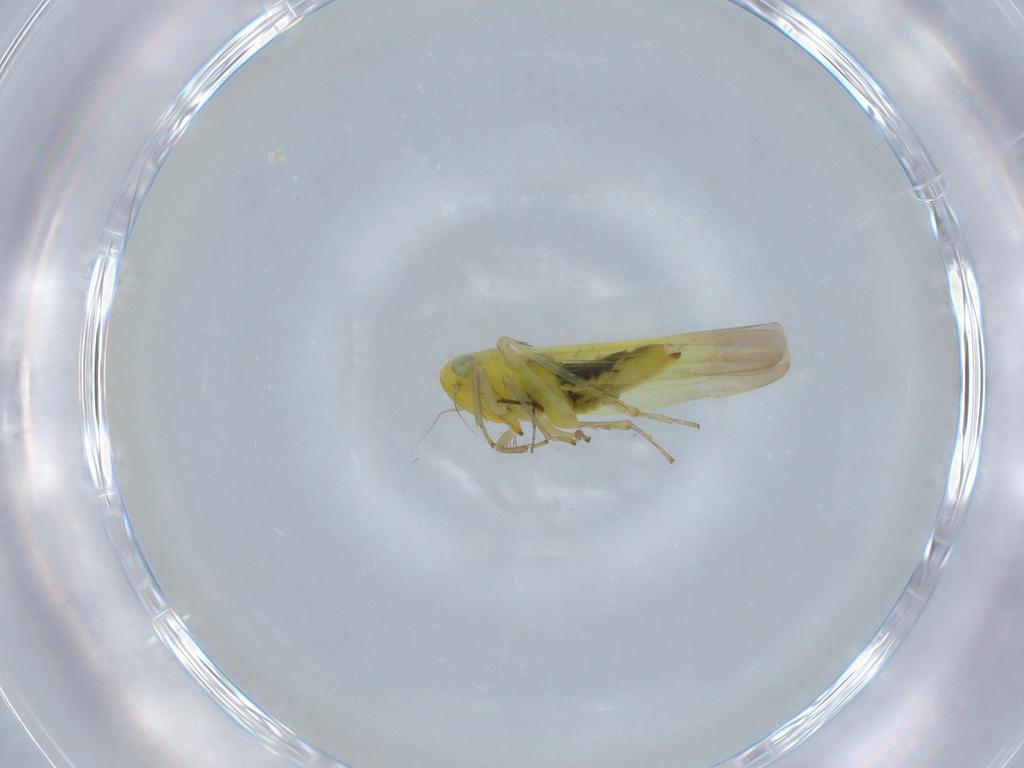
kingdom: Animalia
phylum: Arthropoda
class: Insecta
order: Hemiptera
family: Cicadellidae
